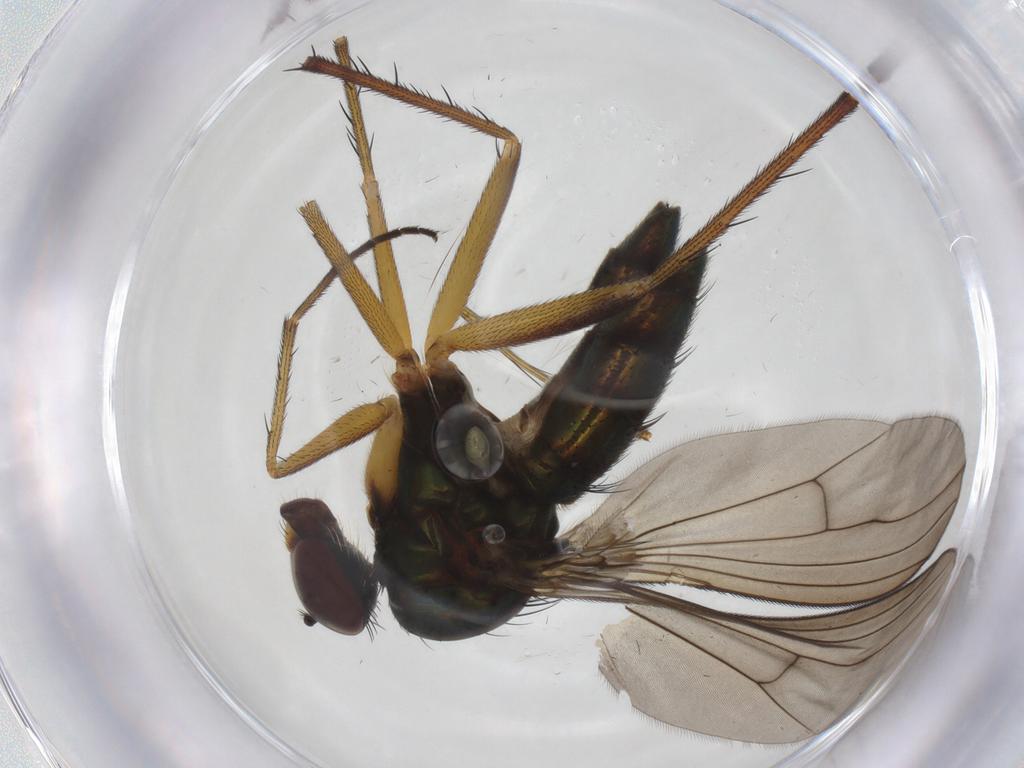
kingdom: Animalia
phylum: Arthropoda
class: Insecta
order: Diptera
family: Dolichopodidae
